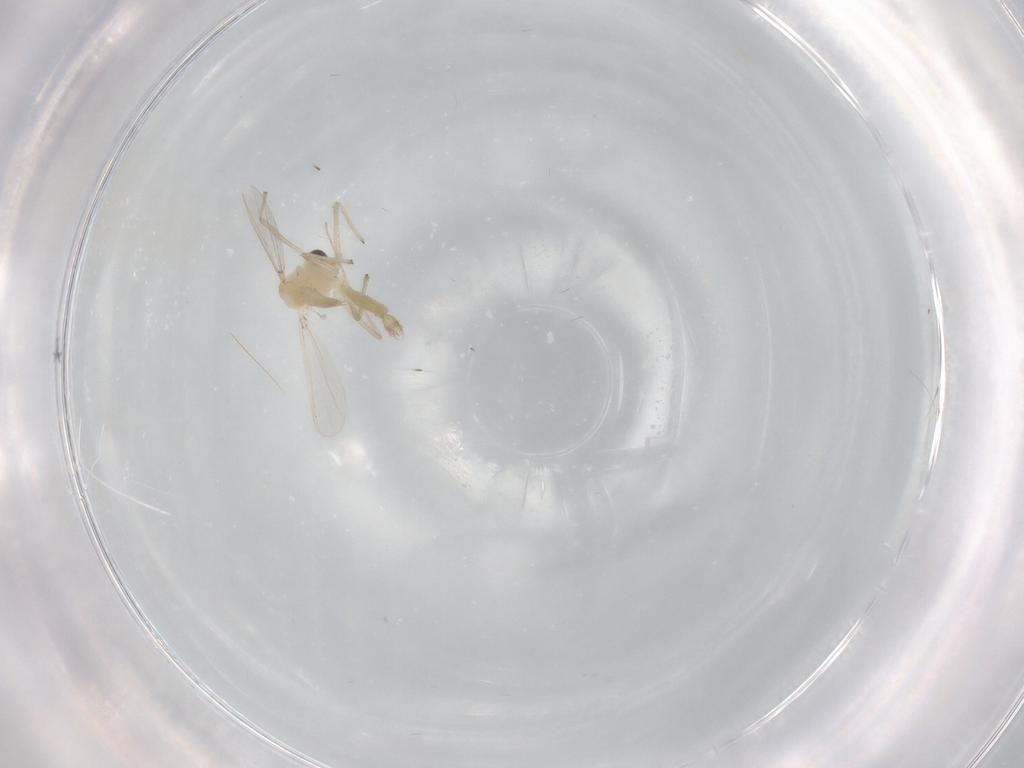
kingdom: Animalia
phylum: Arthropoda
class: Insecta
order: Diptera
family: Chironomidae
